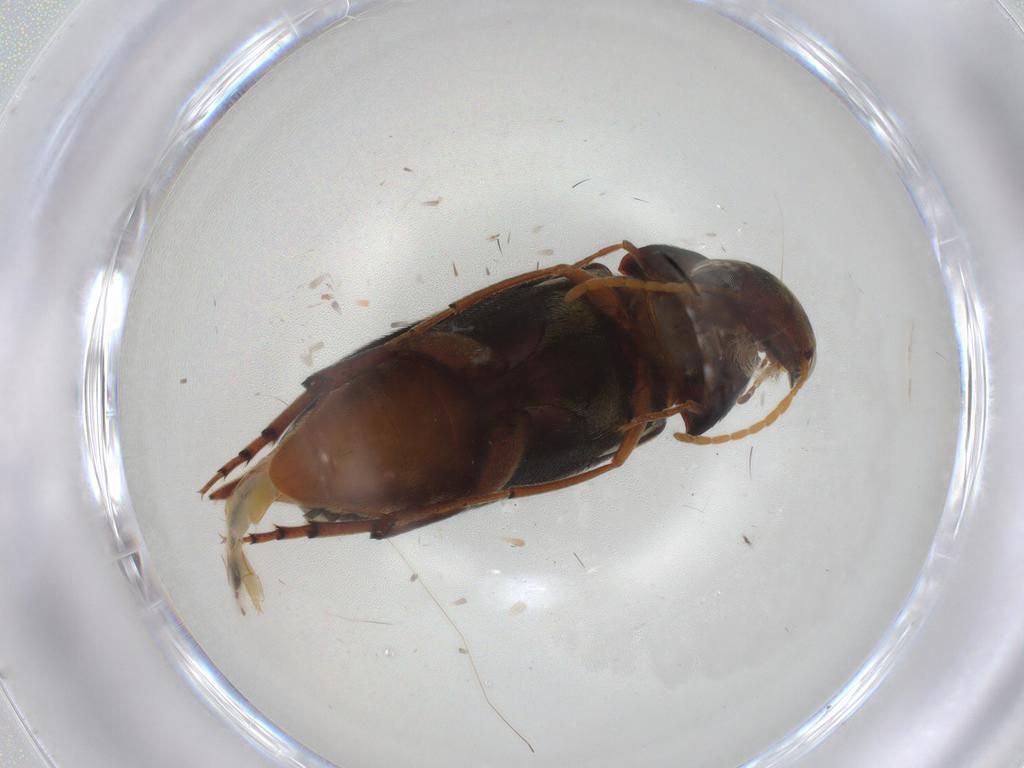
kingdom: Animalia
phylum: Arthropoda
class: Insecta
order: Coleoptera
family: Mordellidae
